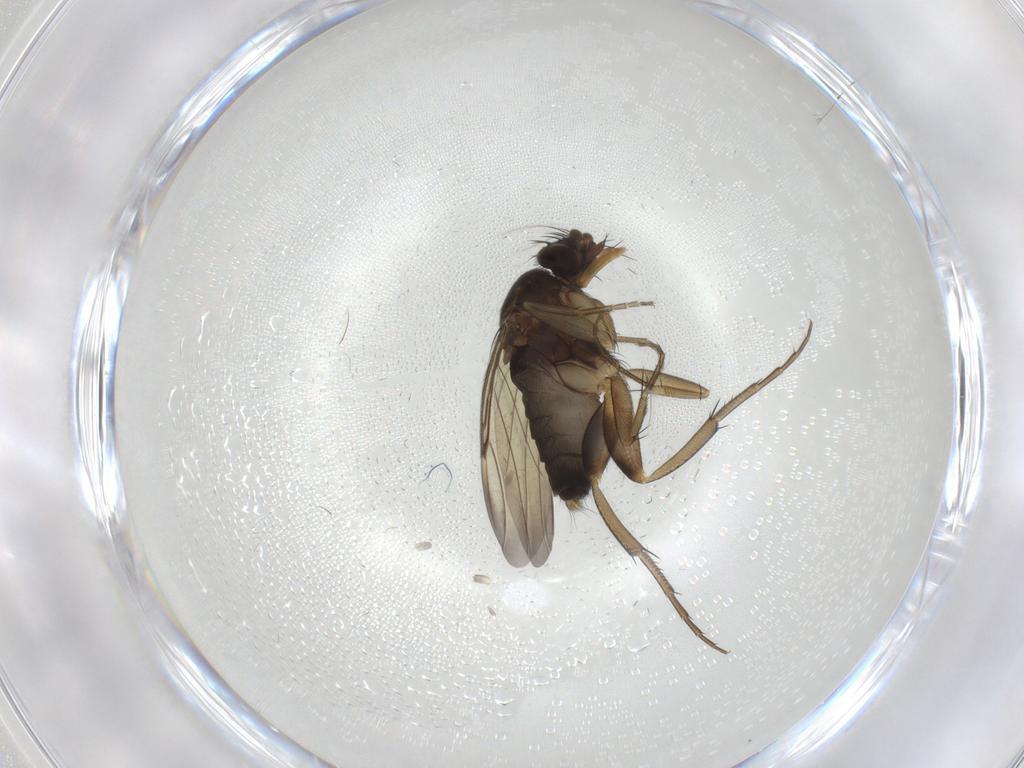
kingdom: Animalia
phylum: Arthropoda
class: Insecta
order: Diptera
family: Phoridae
